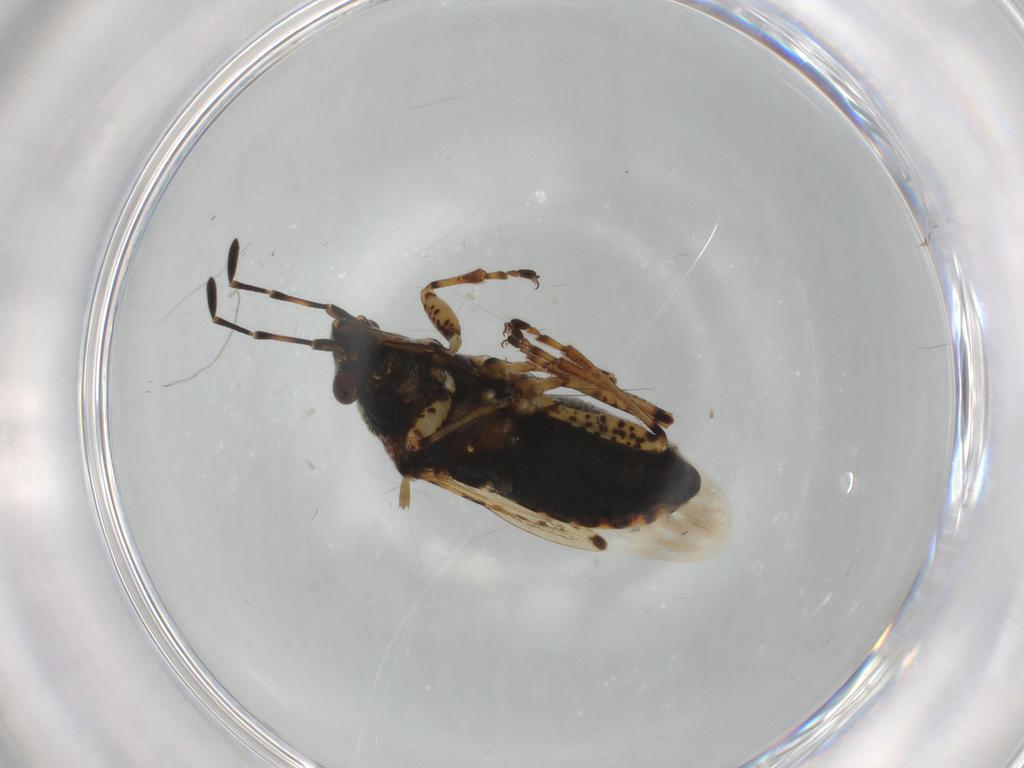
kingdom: Animalia
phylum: Arthropoda
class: Insecta
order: Hemiptera
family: Lygaeidae
